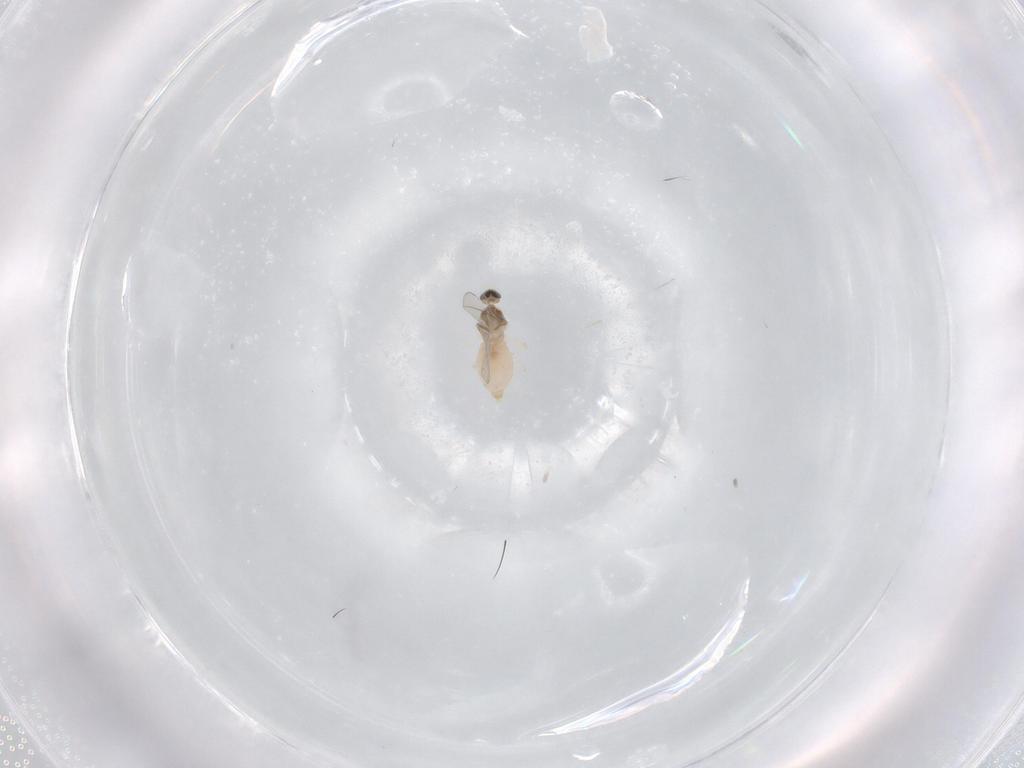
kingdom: Animalia
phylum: Arthropoda
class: Insecta
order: Diptera
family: Cecidomyiidae
